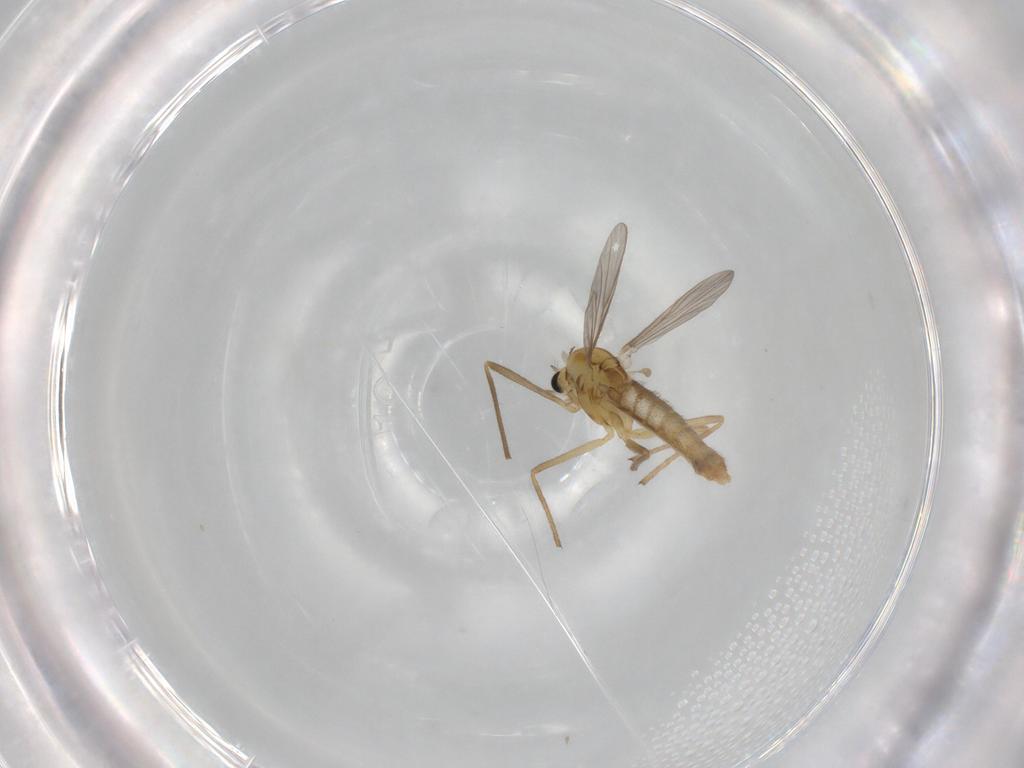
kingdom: Animalia
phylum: Arthropoda
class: Insecta
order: Diptera
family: Chironomidae
